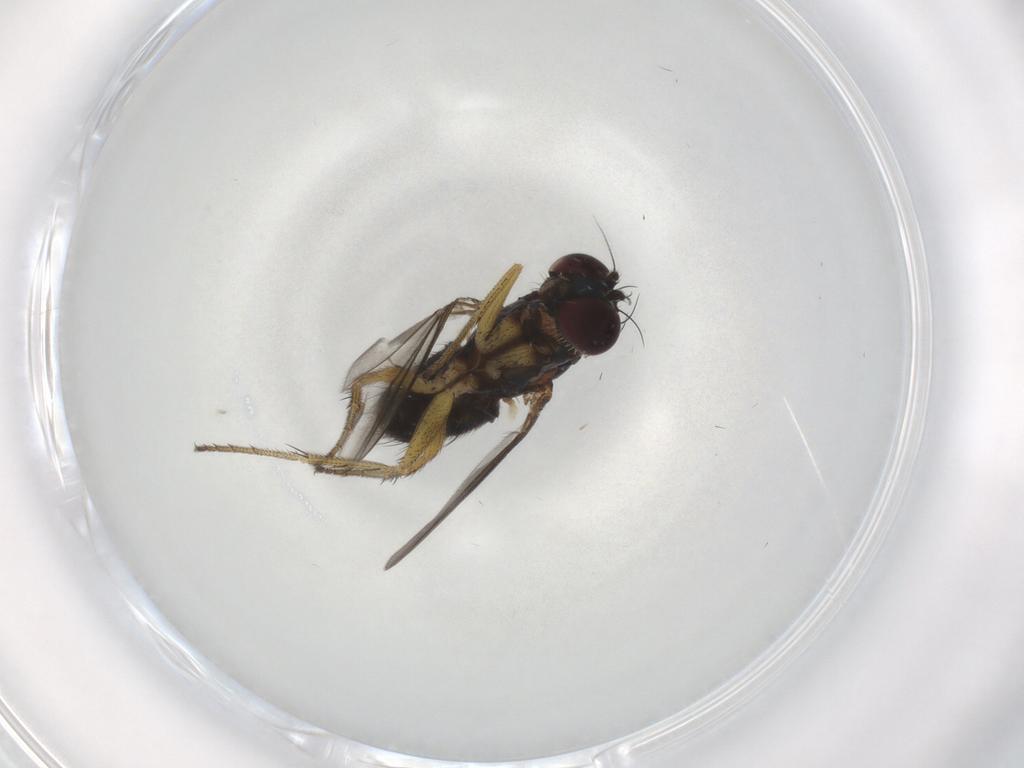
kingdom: Animalia
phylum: Arthropoda
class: Insecta
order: Diptera
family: Dolichopodidae
